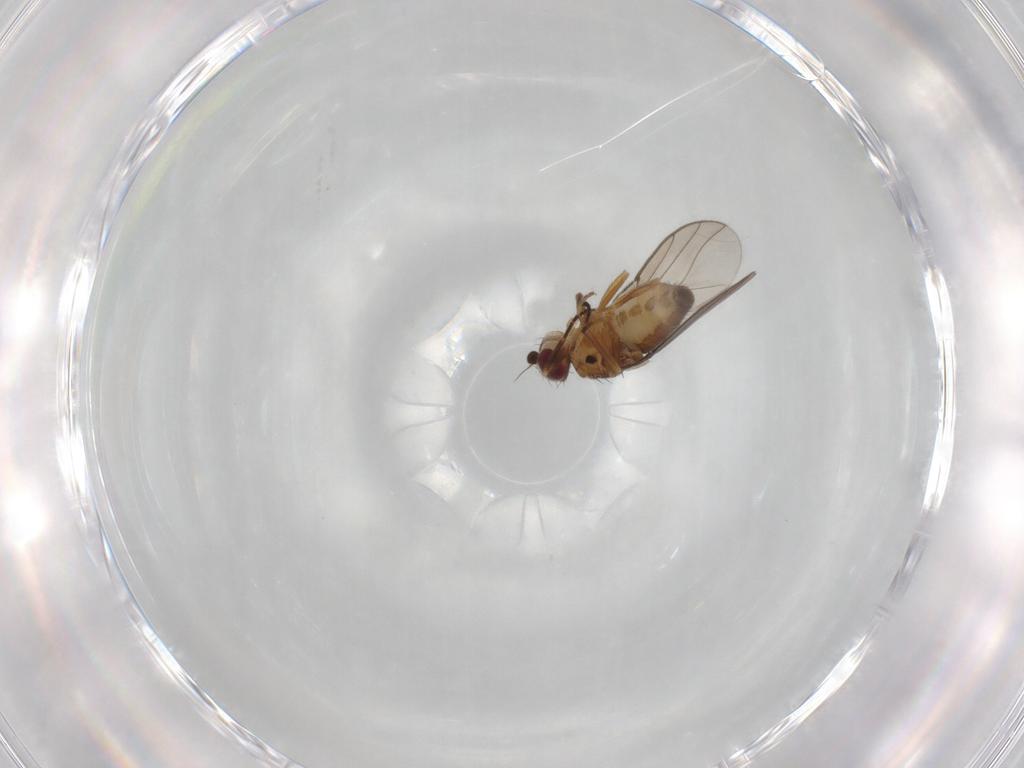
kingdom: Animalia
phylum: Arthropoda
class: Insecta
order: Diptera
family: Chloropidae
